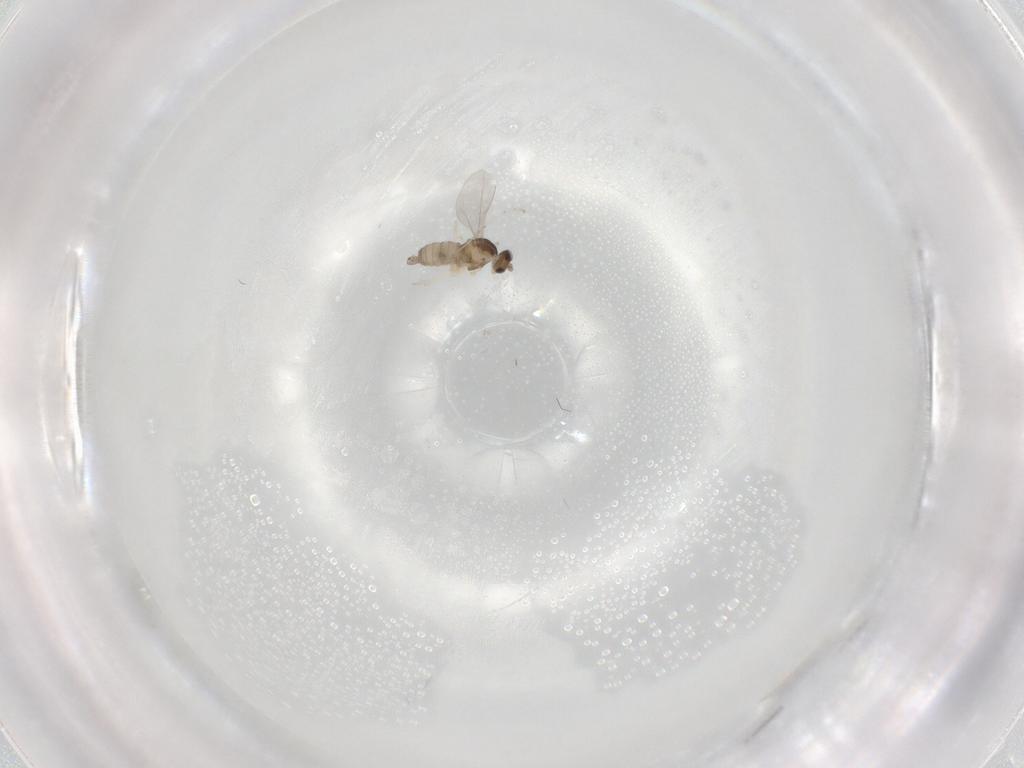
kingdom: Animalia
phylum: Arthropoda
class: Insecta
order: Diptera
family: Cecidomyiidae
